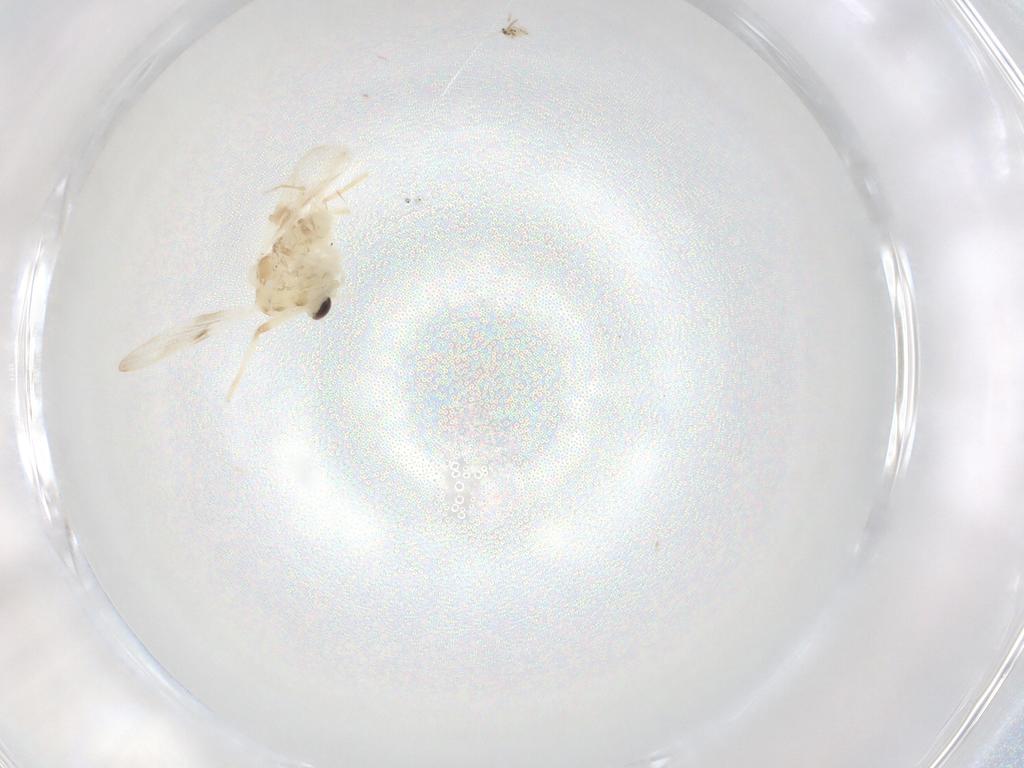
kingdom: Animalia
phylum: Arthropoda
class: Insecta
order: Diptera
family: Chironomidae
